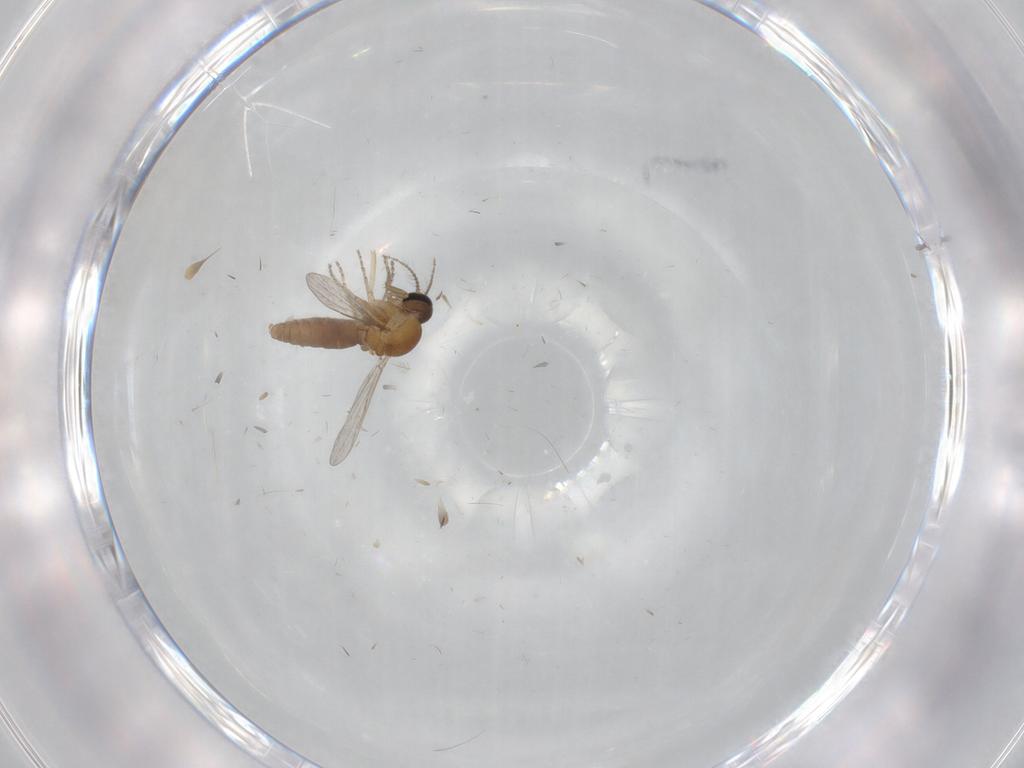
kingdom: Animalia
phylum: Arthropoda
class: Insecta
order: Diptera
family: Ceratopogonidae
